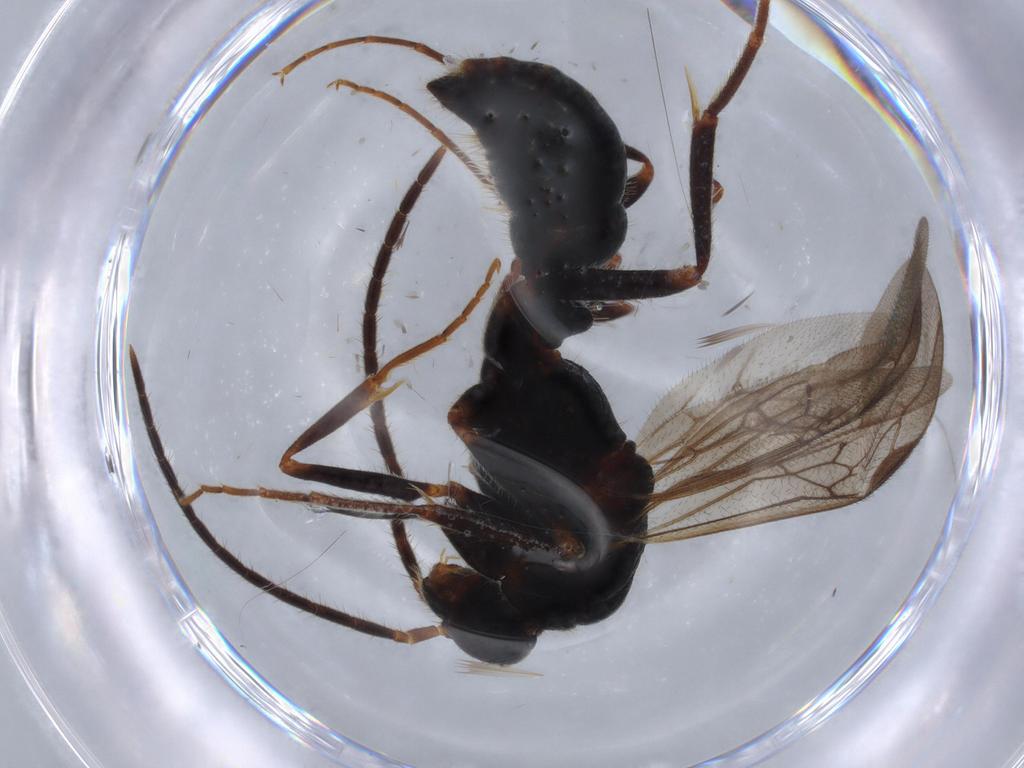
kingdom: Animalia
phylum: Arthropoda
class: Insecta
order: Hymenoptera
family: Formicidae
